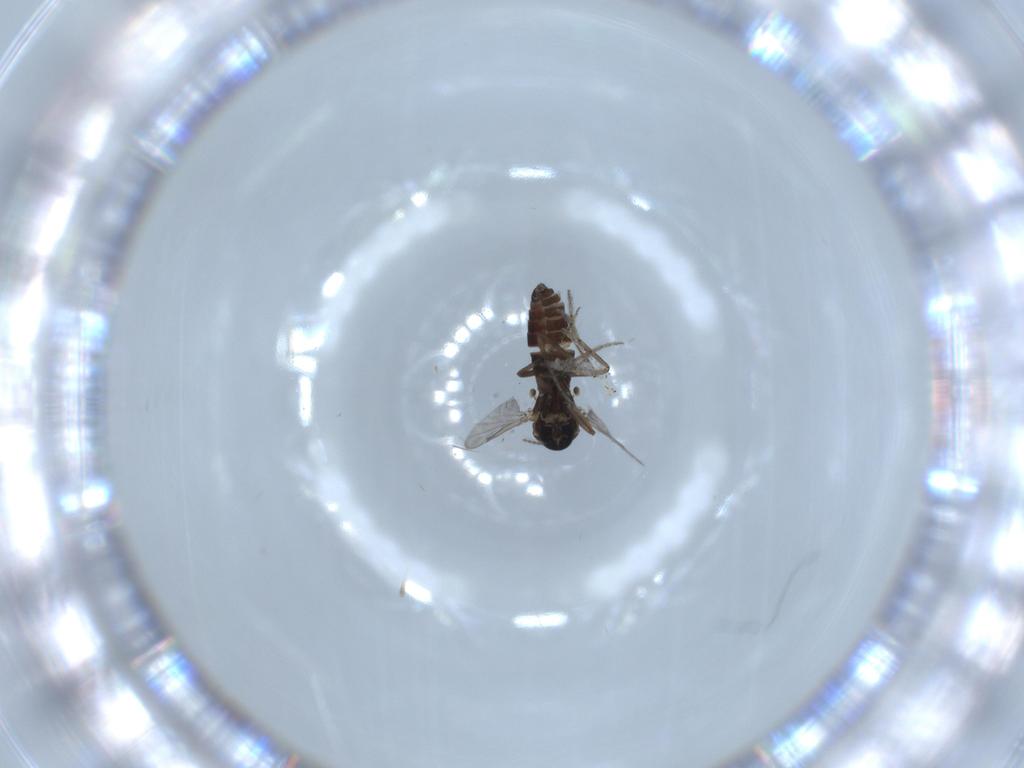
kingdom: Animalia
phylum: Arthropoda
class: Insecta
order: Diptera
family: Ceratopogonidae
